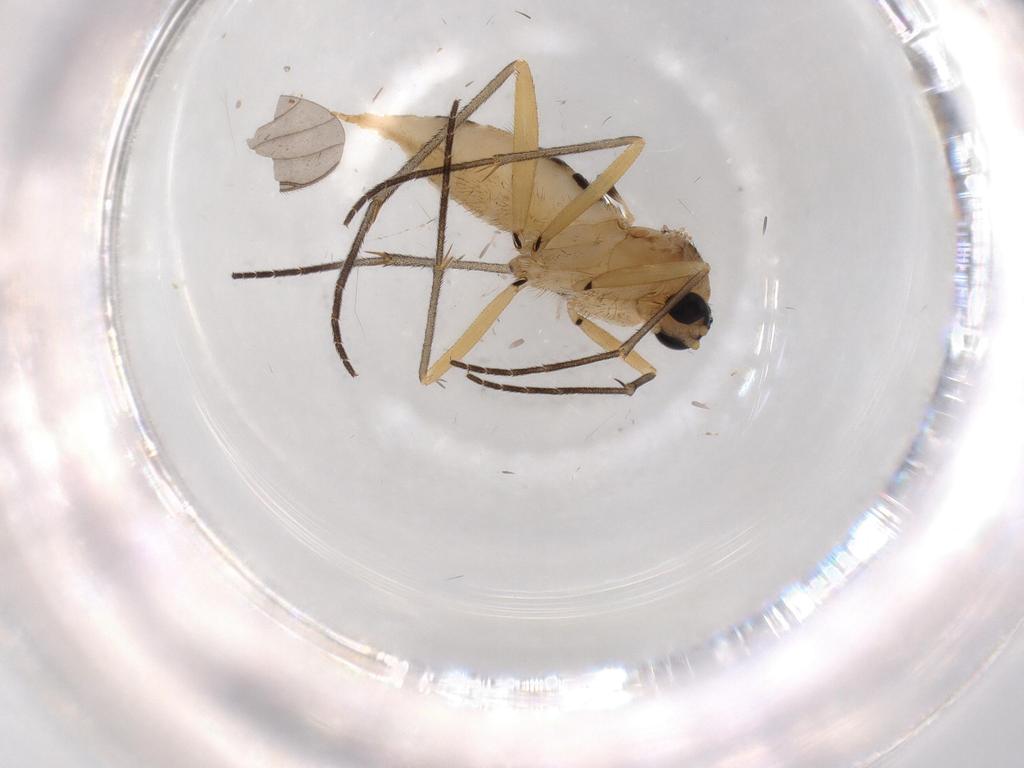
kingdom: Animalia
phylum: Arthropoda
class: Insecta
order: Diptera
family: Sciaridae
